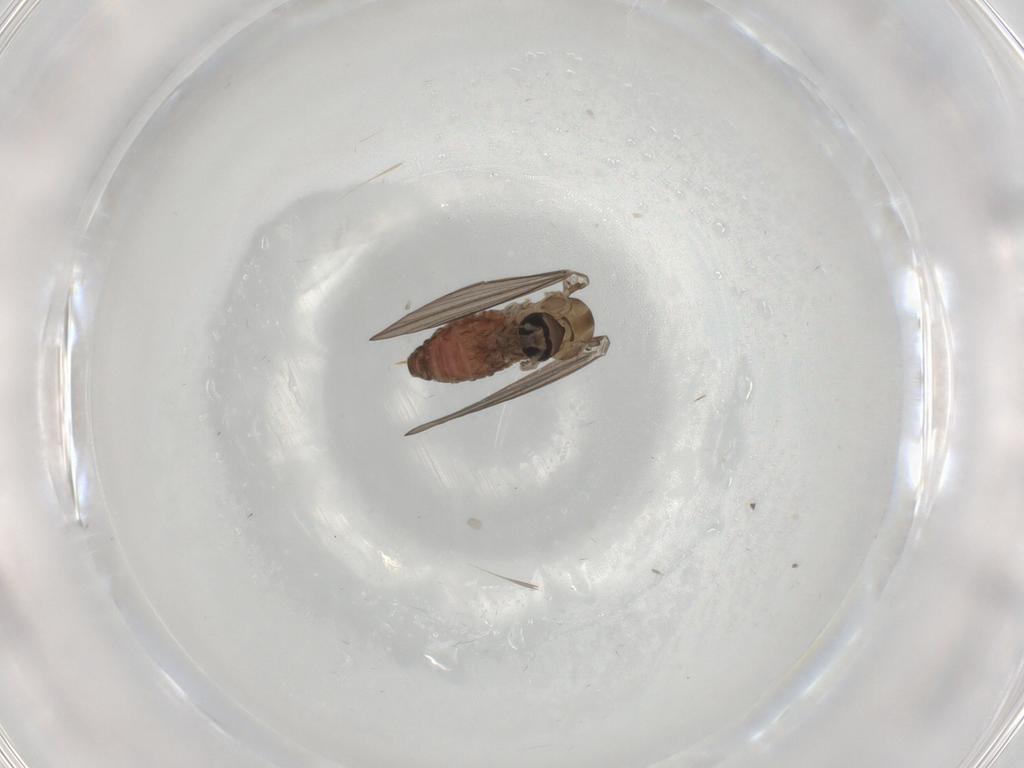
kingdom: Animalia
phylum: Arthropoda
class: Insecta
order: Diptera
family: Psychodidae
